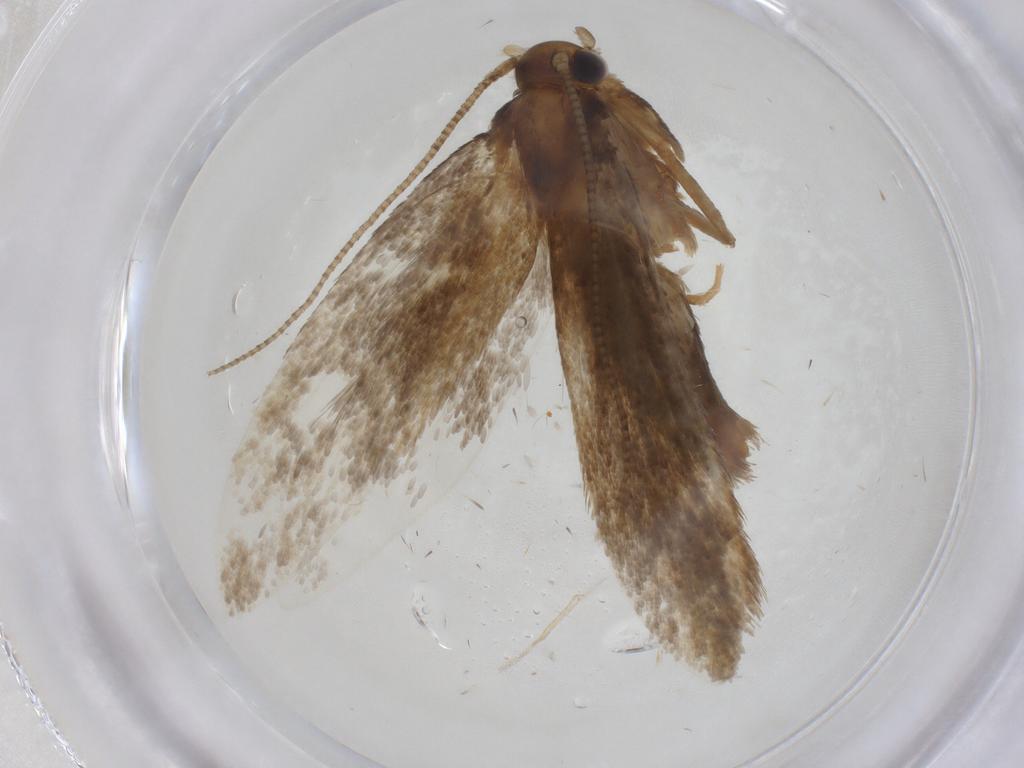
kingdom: Animalia
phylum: Arthropoda
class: Insecta
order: Lepidoptera
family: Tineidae
